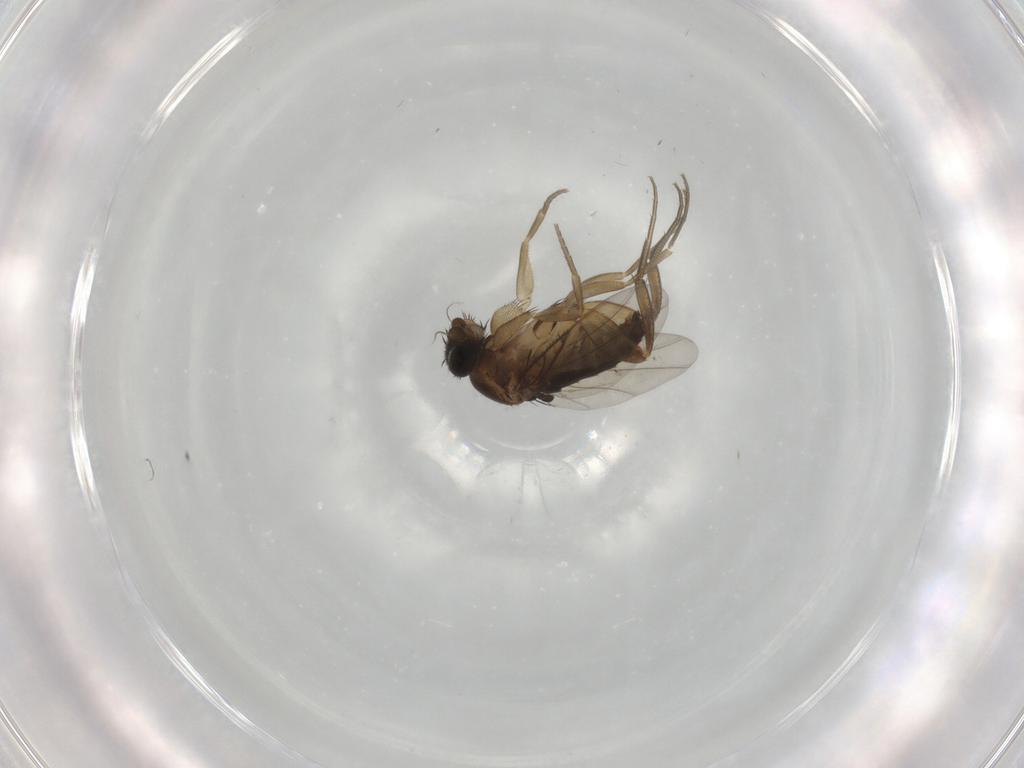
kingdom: Animalia
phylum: Arthropoda
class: Insecta
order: Diptera
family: Phoridae
